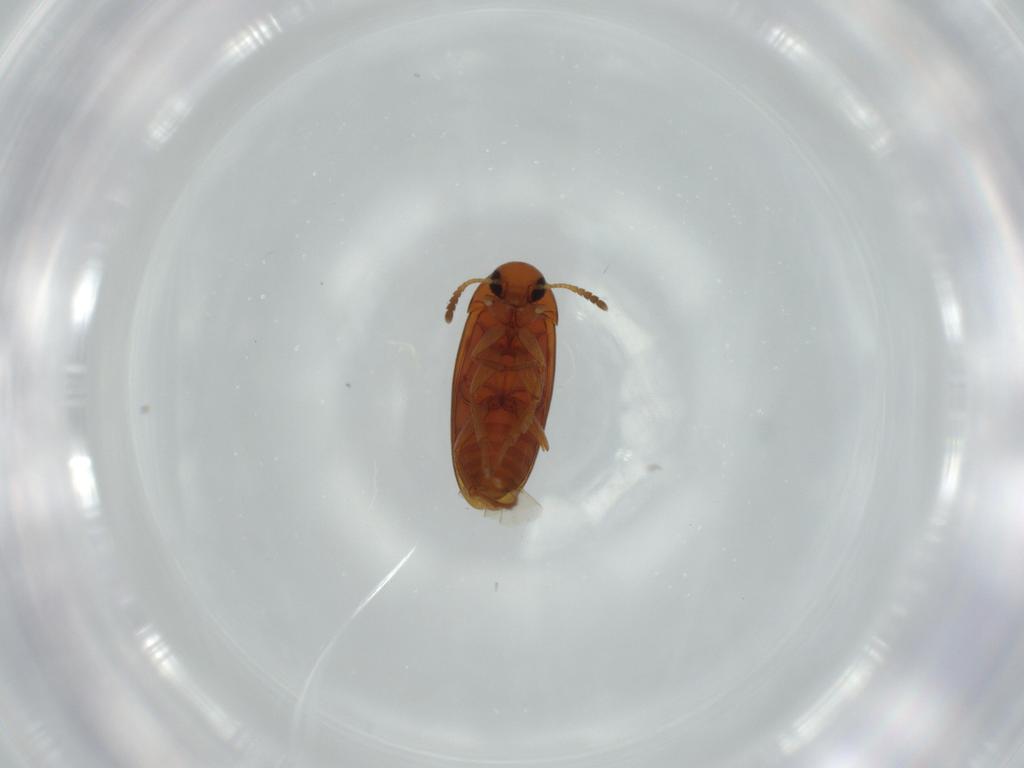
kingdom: Animalia
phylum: Arthropoda
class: Insecta
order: Coleoptera
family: Scraptiidae
